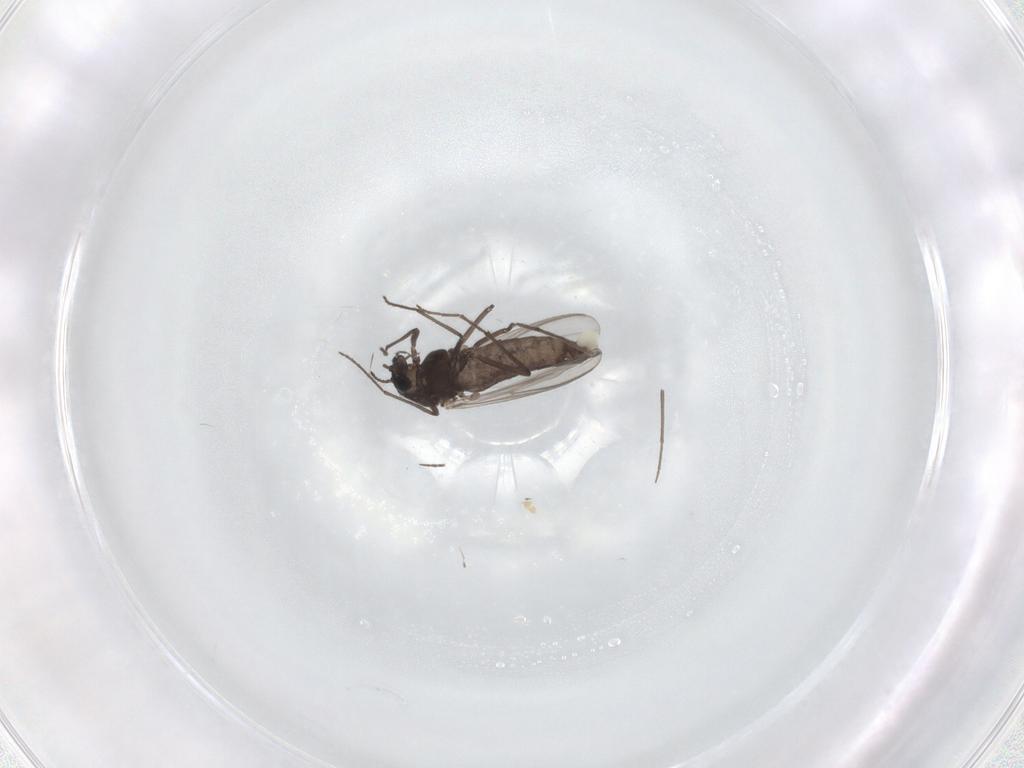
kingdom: Animalia
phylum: Arthropoda
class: Insecta
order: Diptera
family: Chironomidae
